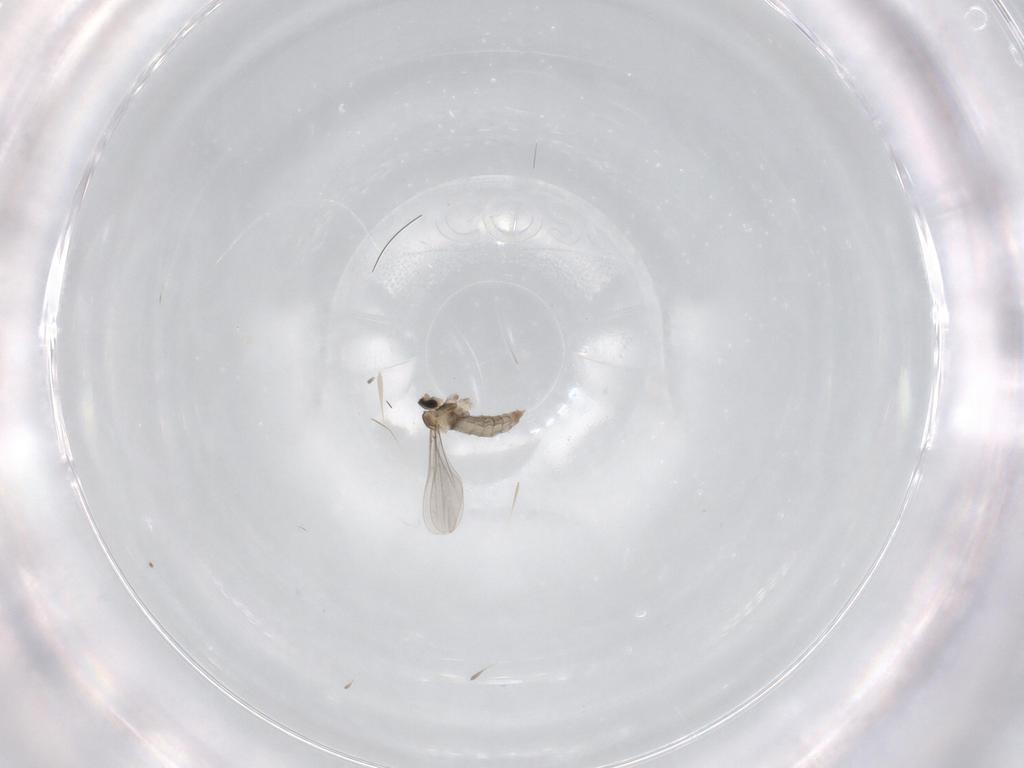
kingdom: Animalia
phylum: Arthropoda
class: Insecta
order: Diptera
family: Cecidomyiidae
